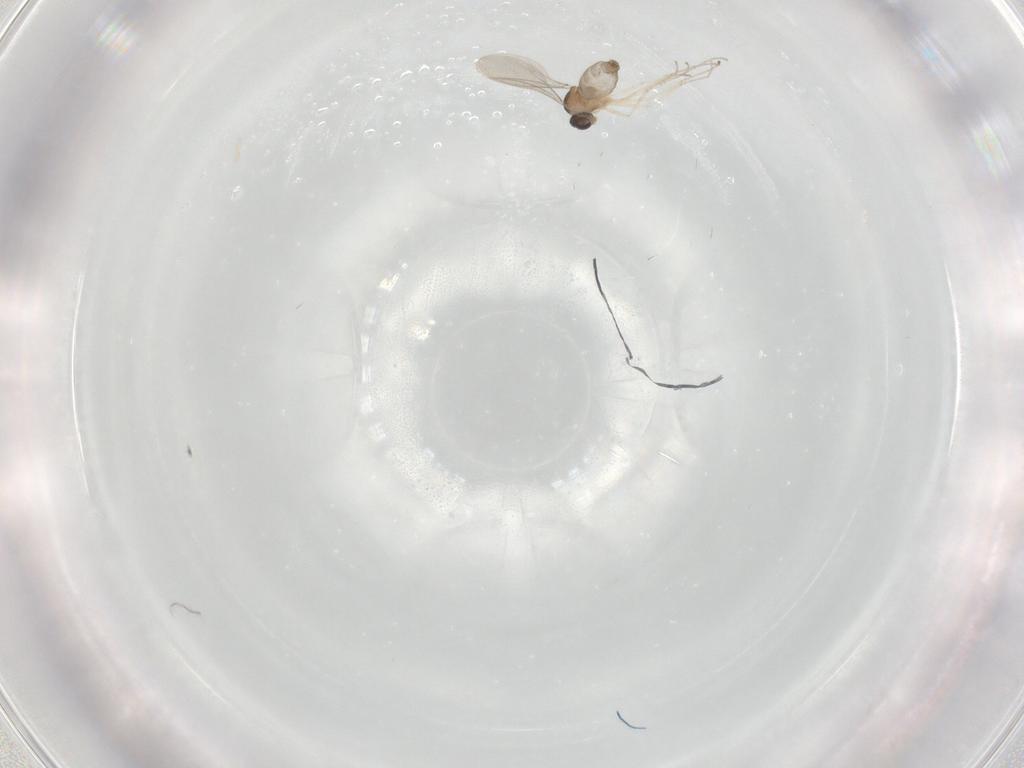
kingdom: Animalia
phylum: Arthropoda
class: Insecta
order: Diptera
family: Cecidomyiidae
